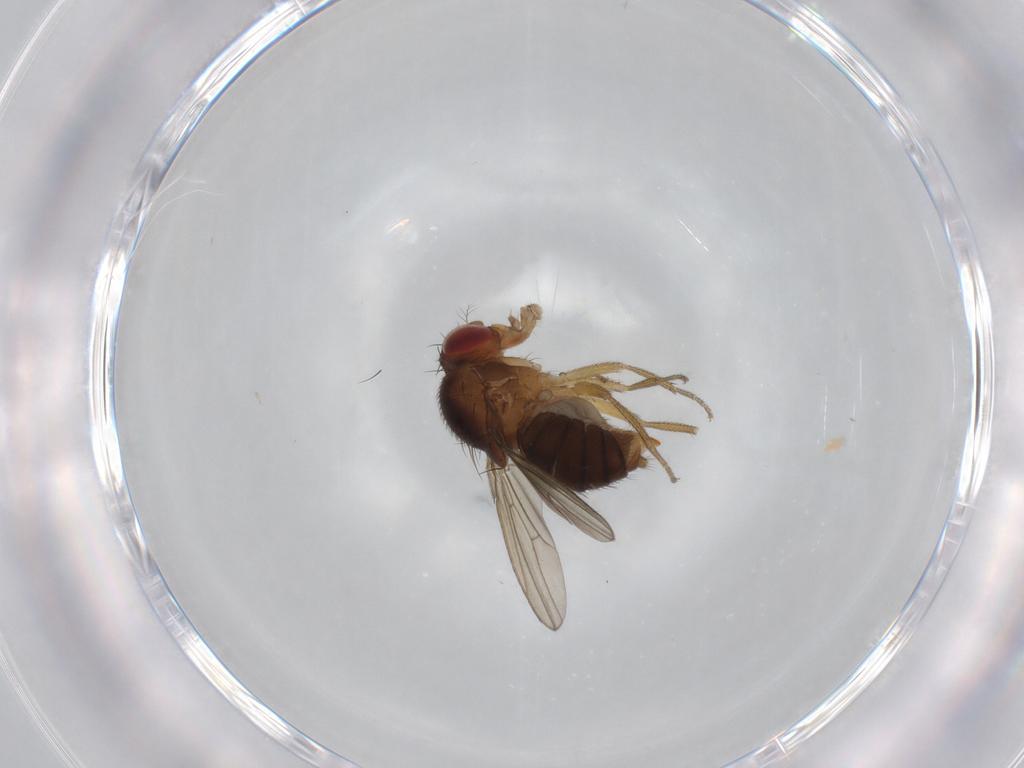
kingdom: Animalia
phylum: Arthropoda
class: Insecta
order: Diptera
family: Drosophilidae
